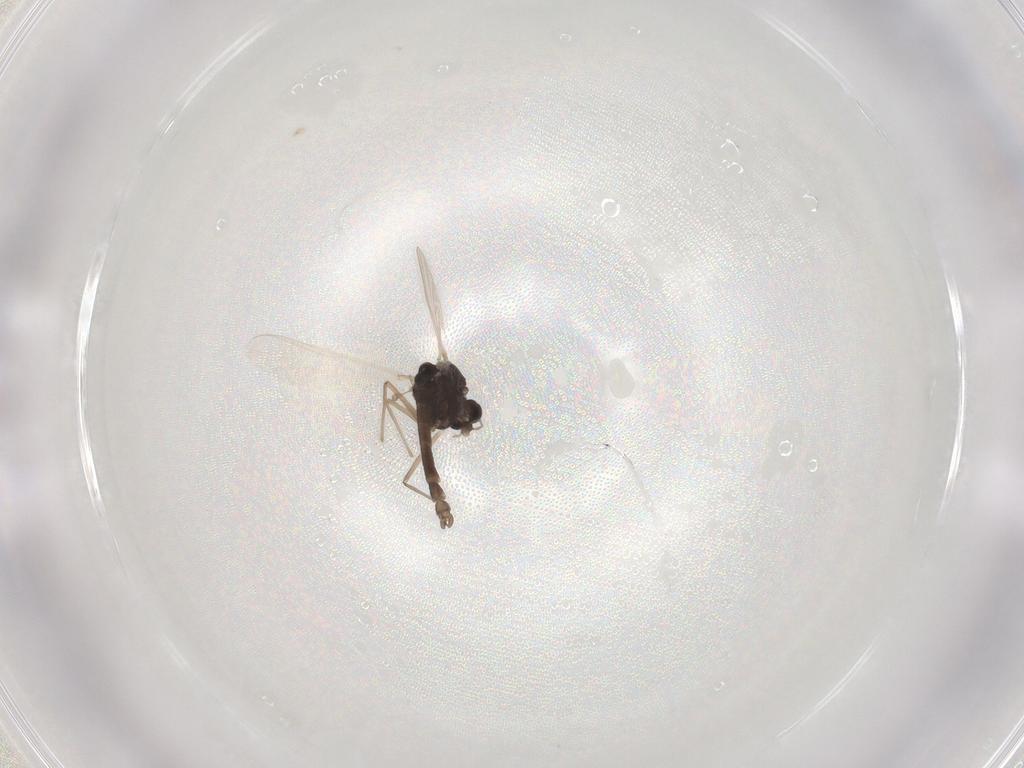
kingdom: Animalia
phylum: Arthropoda
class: Insecta
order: Diptera
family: Chironomidae
